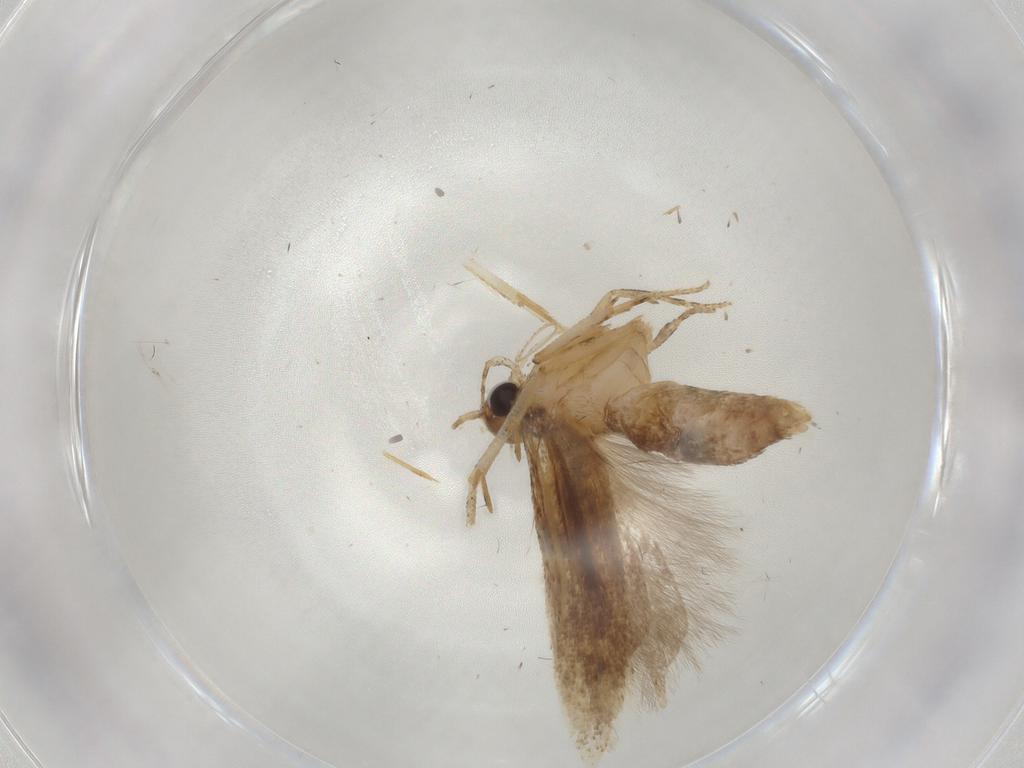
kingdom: Animalia
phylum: Arthropoda
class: Insecta
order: Lepidoptera
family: Gelechiidae
